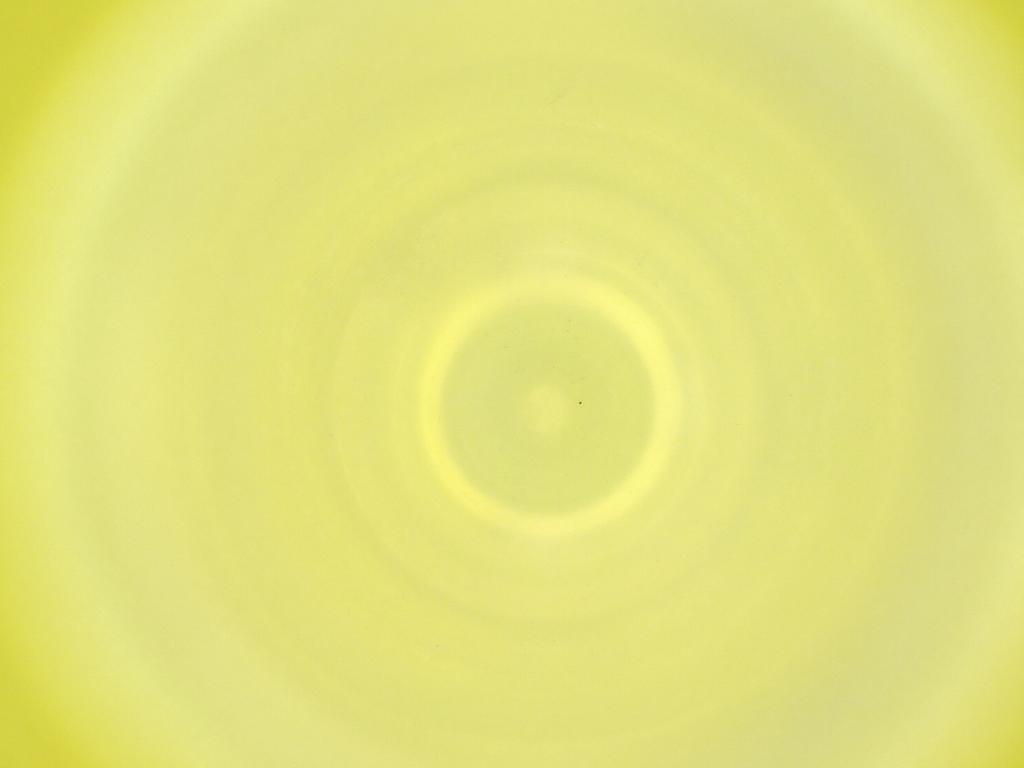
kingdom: Animalia
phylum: Arthropoda
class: Insecta
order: Diptera
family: Cecidomyiidae
